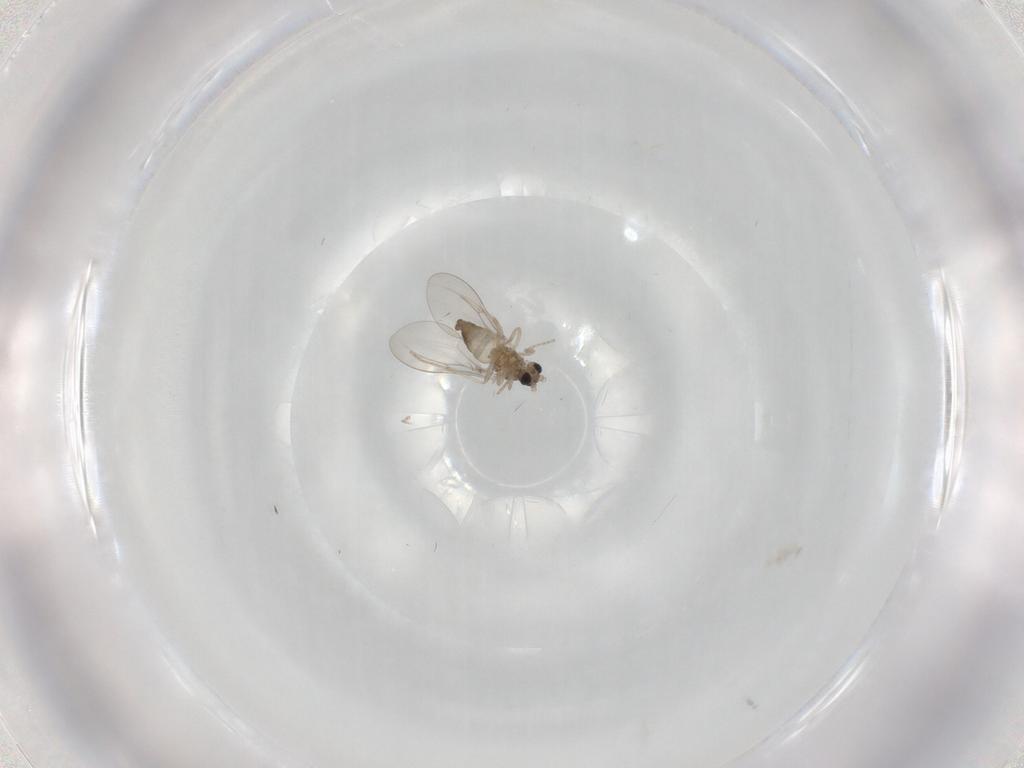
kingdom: Animalia
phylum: Arthropoda
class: Insecta
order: Diptera
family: Cecidomyiidae
